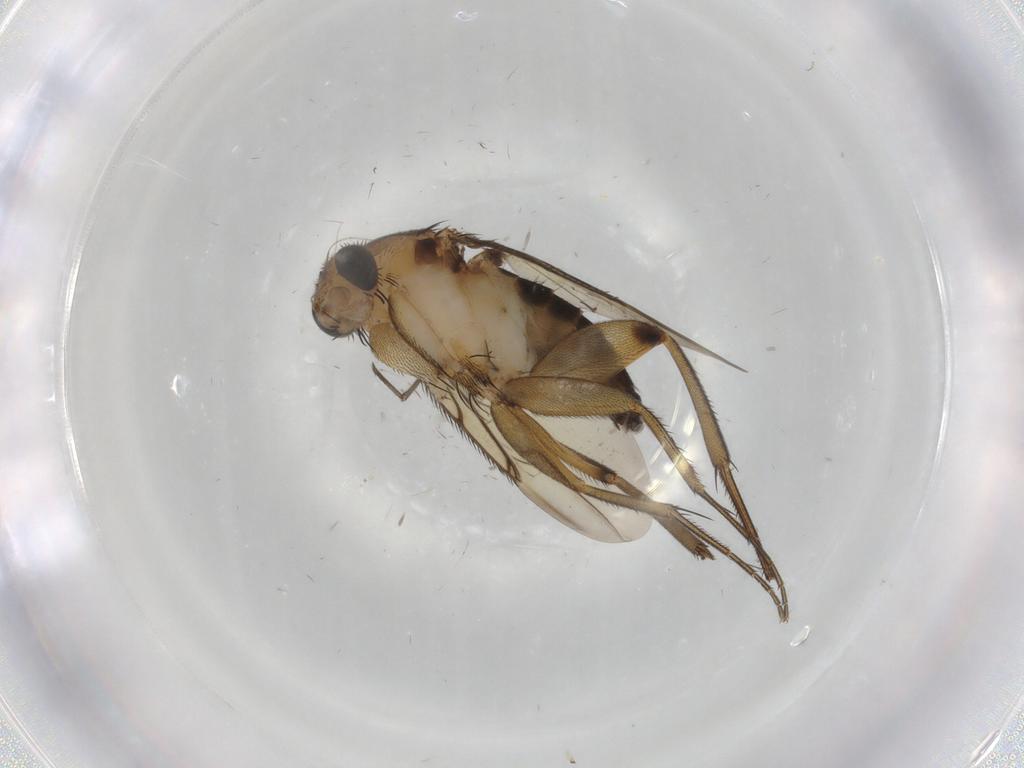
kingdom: Animalia
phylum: Arthropoda
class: Insecta
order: Diptera
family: Phoridae
